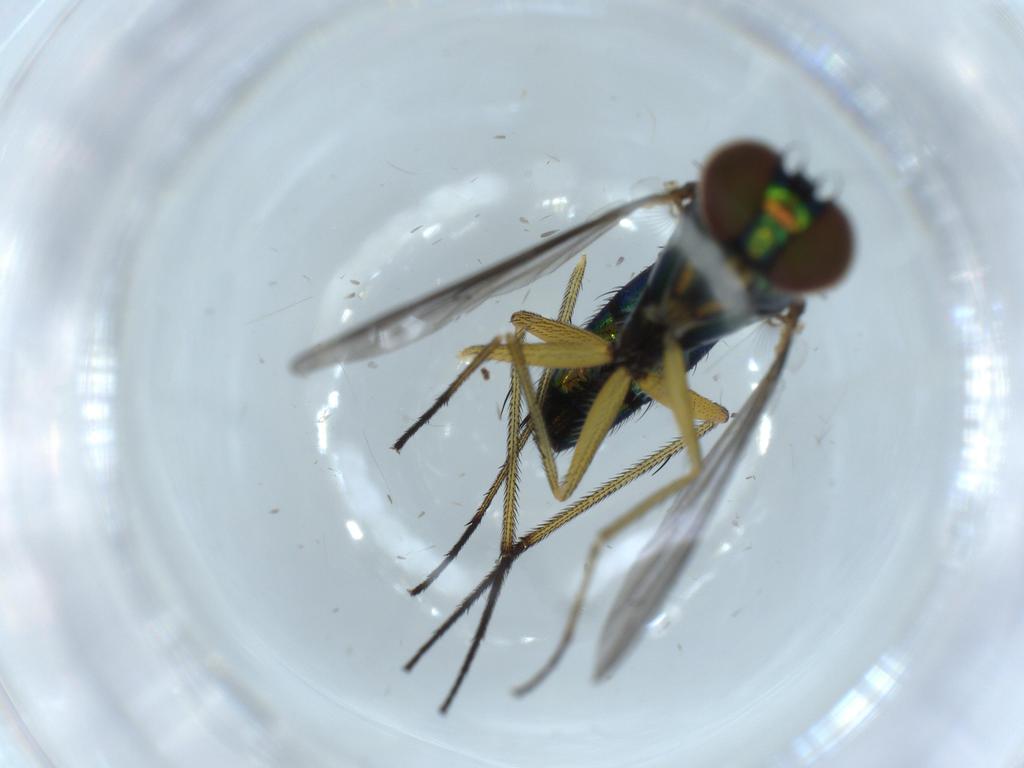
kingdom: Animalia
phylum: Arthropoda
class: Insecta
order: Diptera
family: Dolichopodidae
